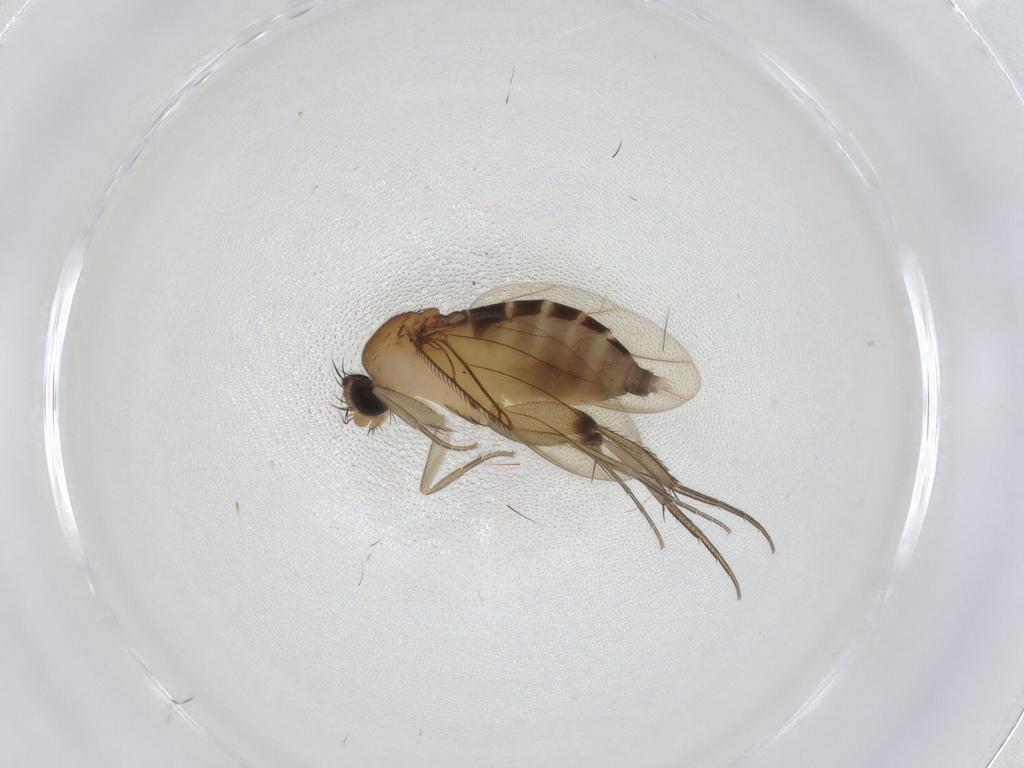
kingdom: Animalia
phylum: Arthropoda
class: Insecta
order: Diptera
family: Phoridae
